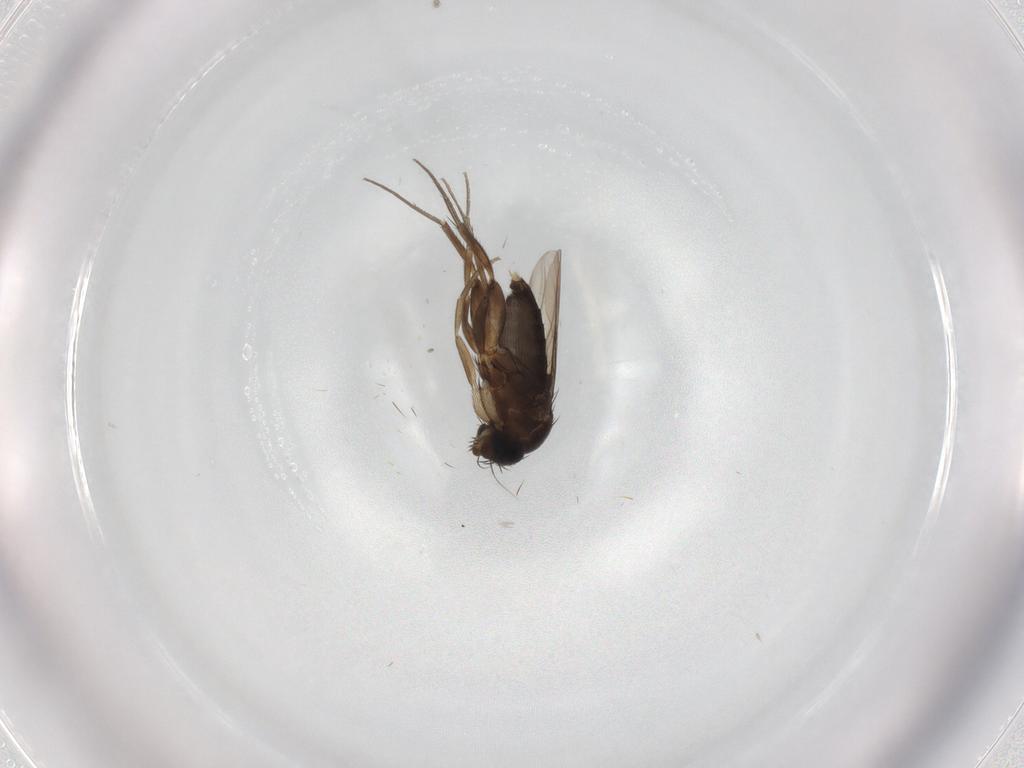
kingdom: Animalia
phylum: Arthropoda
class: Insecta
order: Diptera
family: Phoridae
